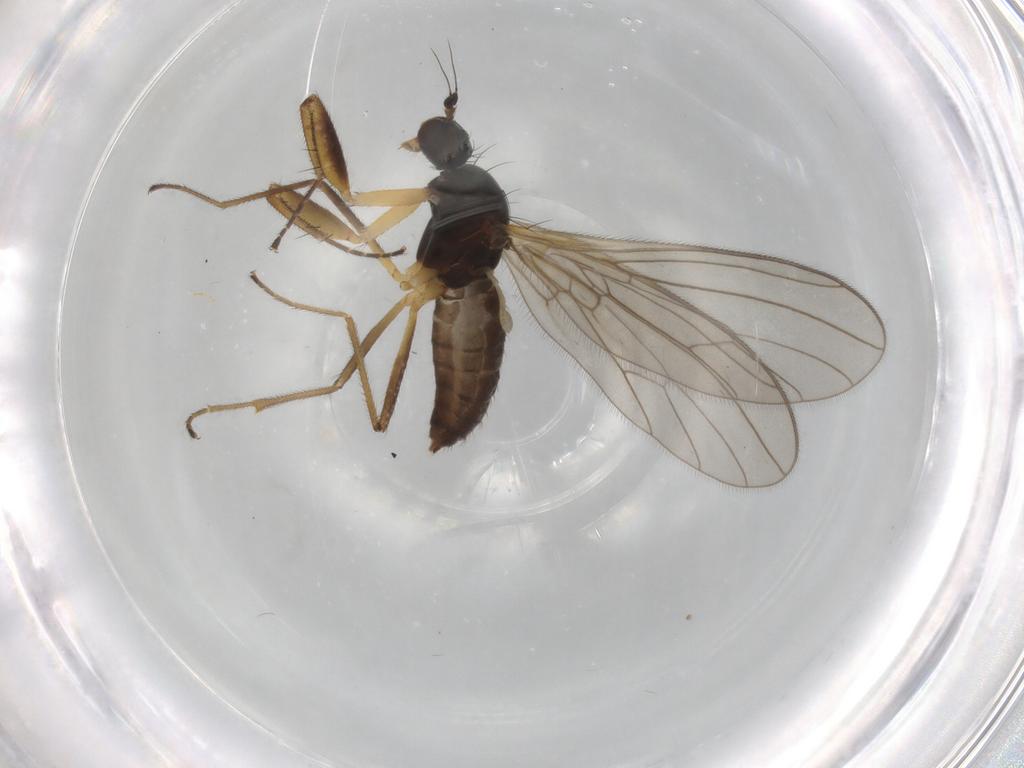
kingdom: Animalia
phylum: Arthropoda
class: Insecta
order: Diptera
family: Empididae
